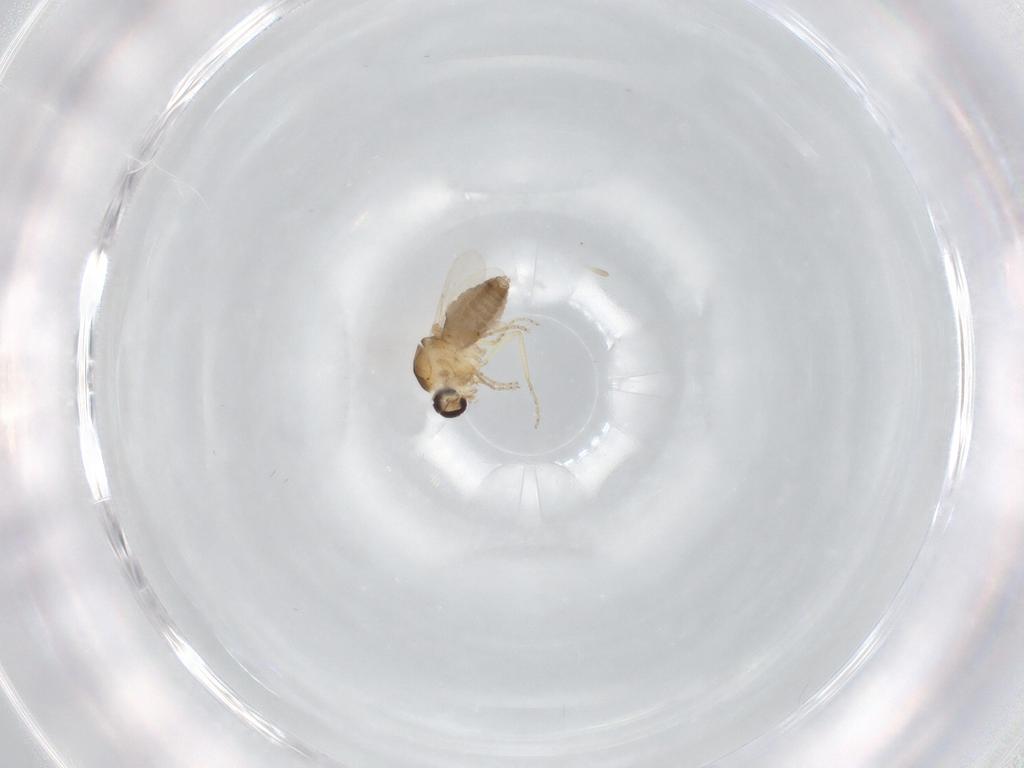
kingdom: Animalia
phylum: Arthropoda
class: Insecta
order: Diptera
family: Ceratopogonidae
